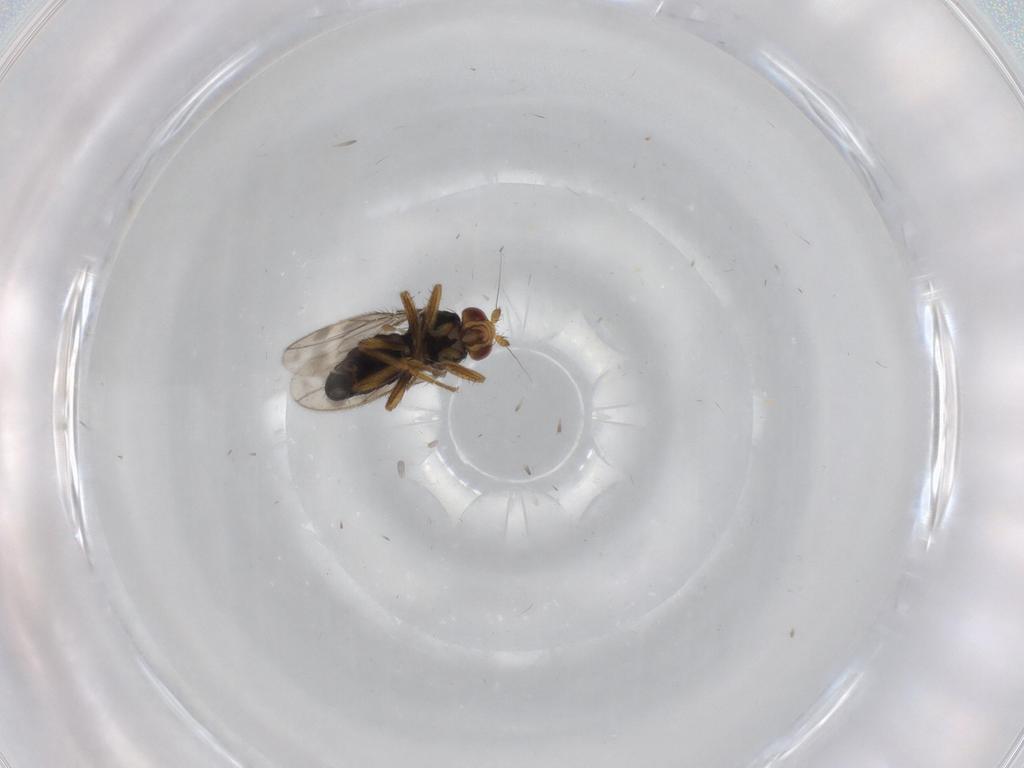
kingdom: Animalia
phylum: Arthropoda
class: Insecta
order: Diptera
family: Sphaeroceridae
